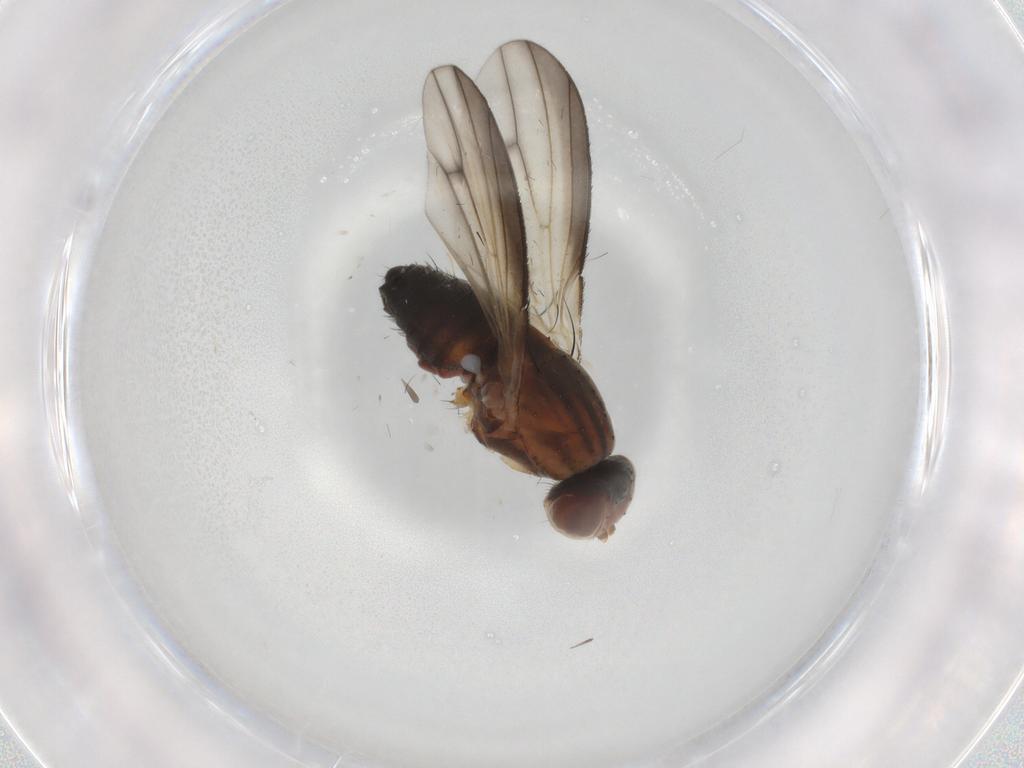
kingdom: Animalia
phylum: Arthropoda
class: Insecta
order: Diptera
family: Heleomyzidae
